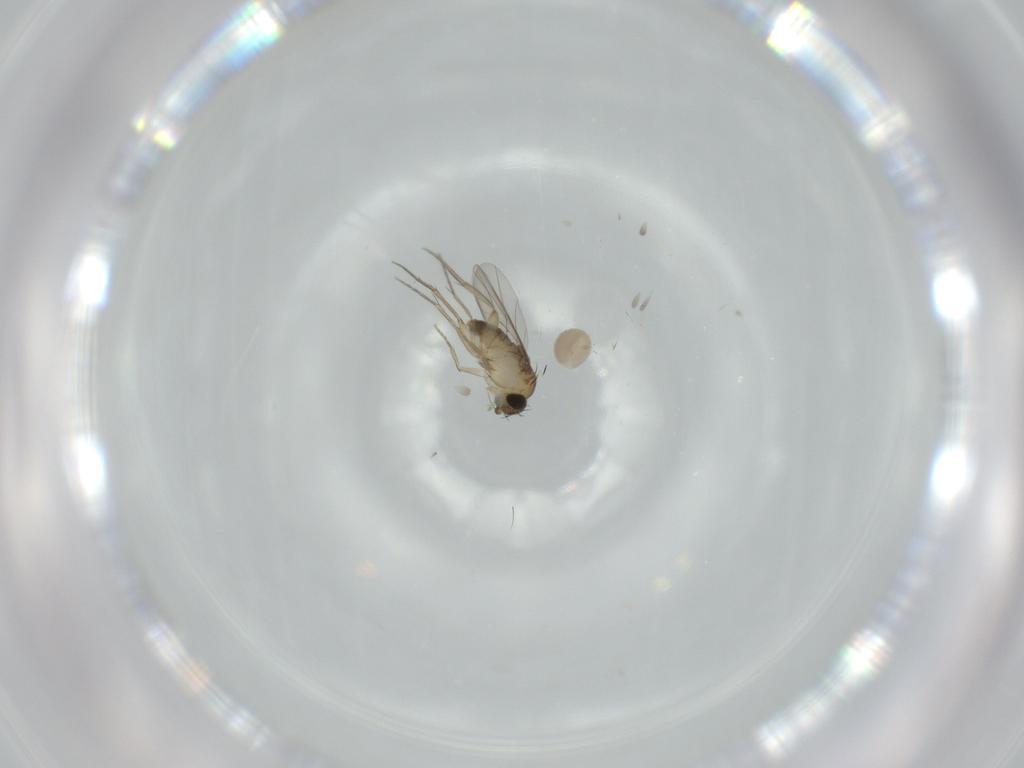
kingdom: Animalia
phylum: Arthropoda
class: Insecta
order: Diptera
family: Phoridae
